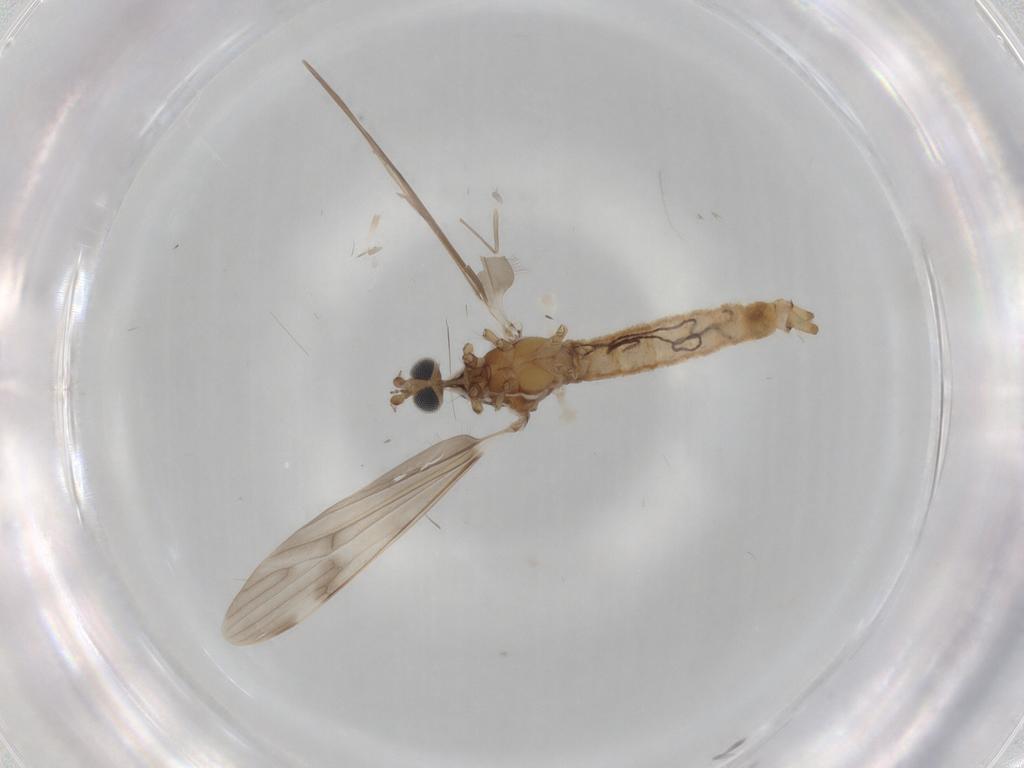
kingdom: Animalia
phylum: Arthropoda
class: Insecta
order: Diptera
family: Limoniidae
